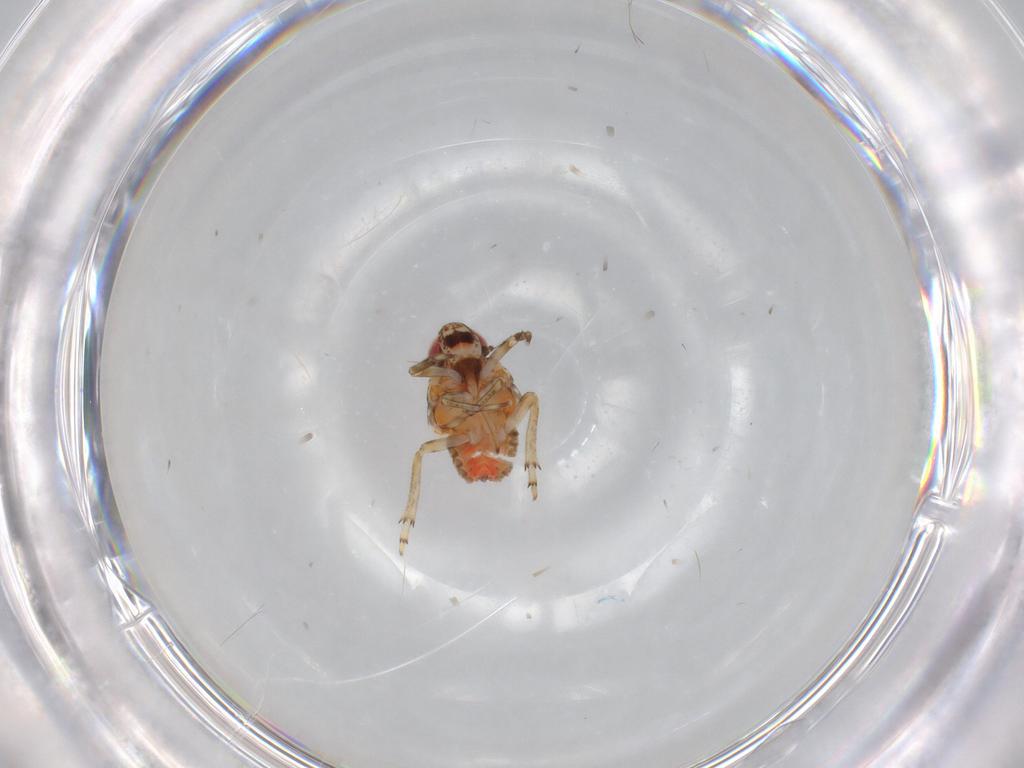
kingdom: Animalia
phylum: Arthropoda
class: Insecta
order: Hemiptera
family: Issidae
